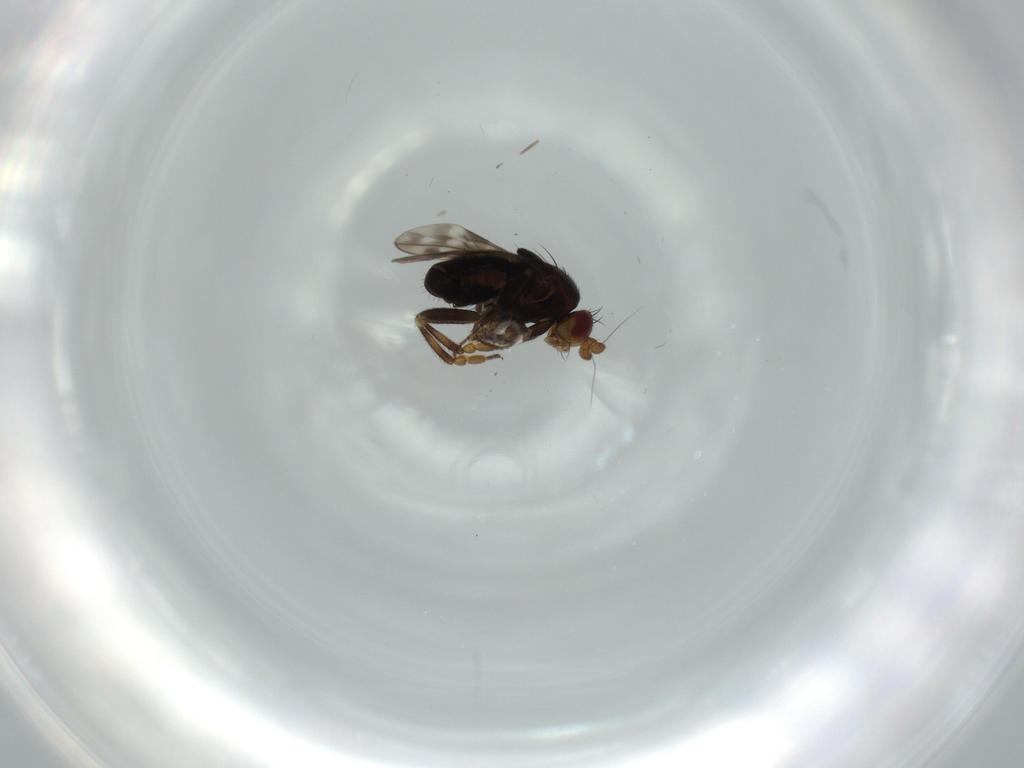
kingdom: Animalia
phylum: Arthropoda
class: Insecta
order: Diptera
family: Sphaeroceridae
